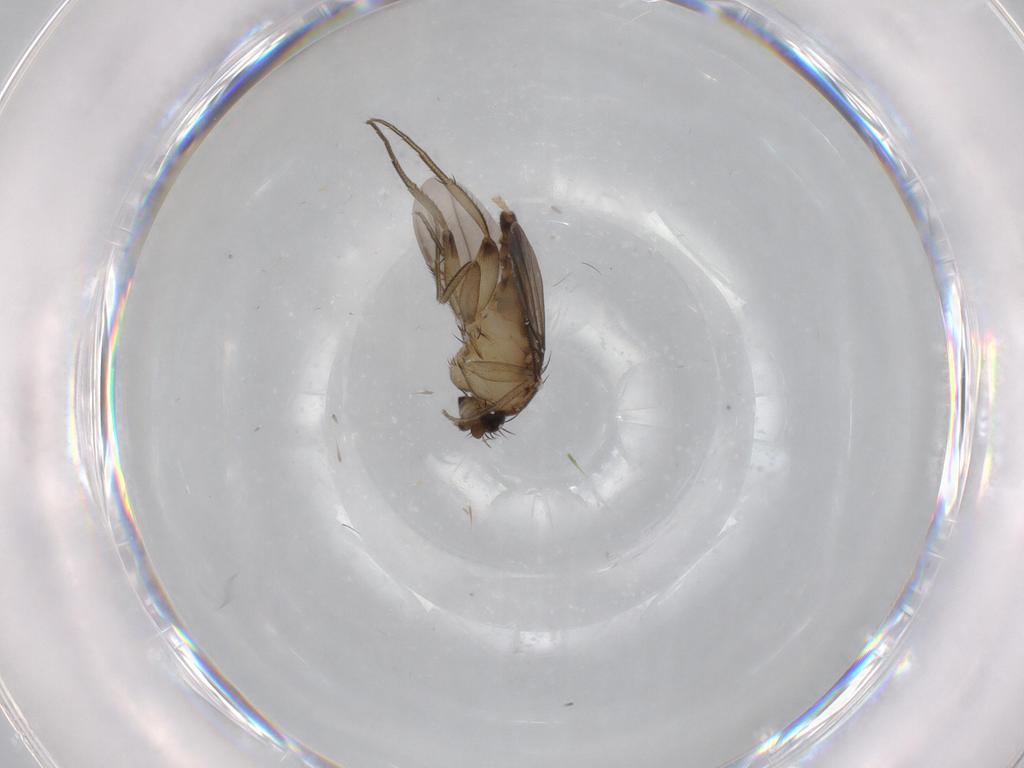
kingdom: Animalia
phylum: Arthropoda
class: Insecta
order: Diptera
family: Phoridae
